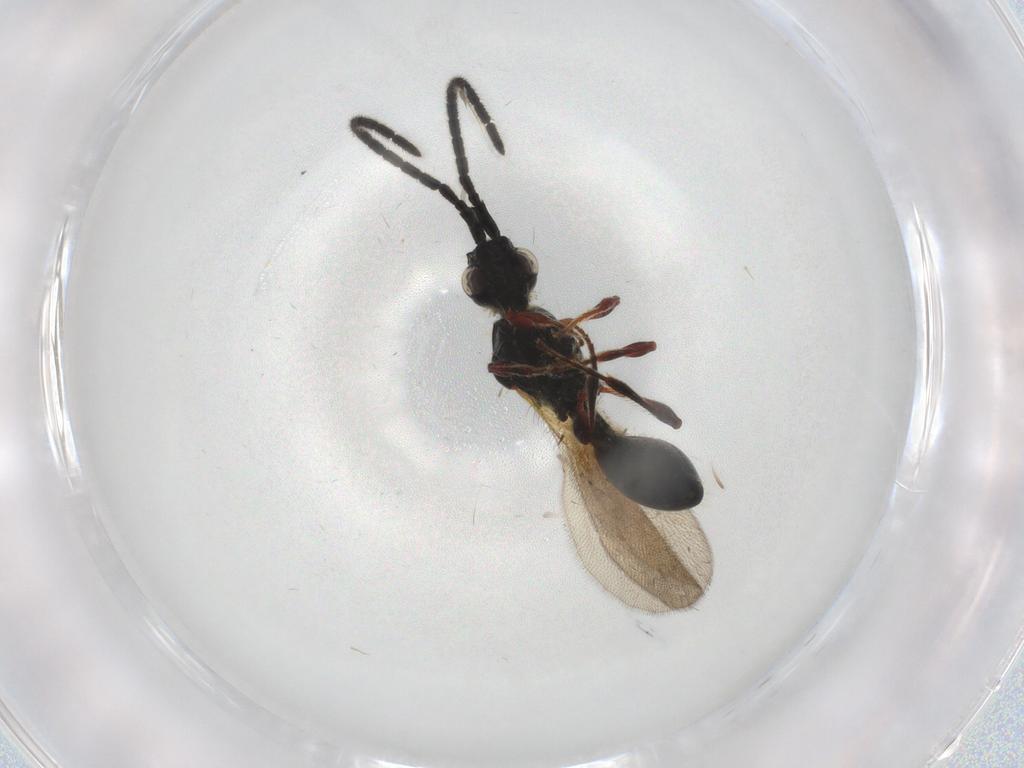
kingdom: Animalia
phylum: Arthropoda
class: Insecta
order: Hymenoptera
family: Diapriidae
